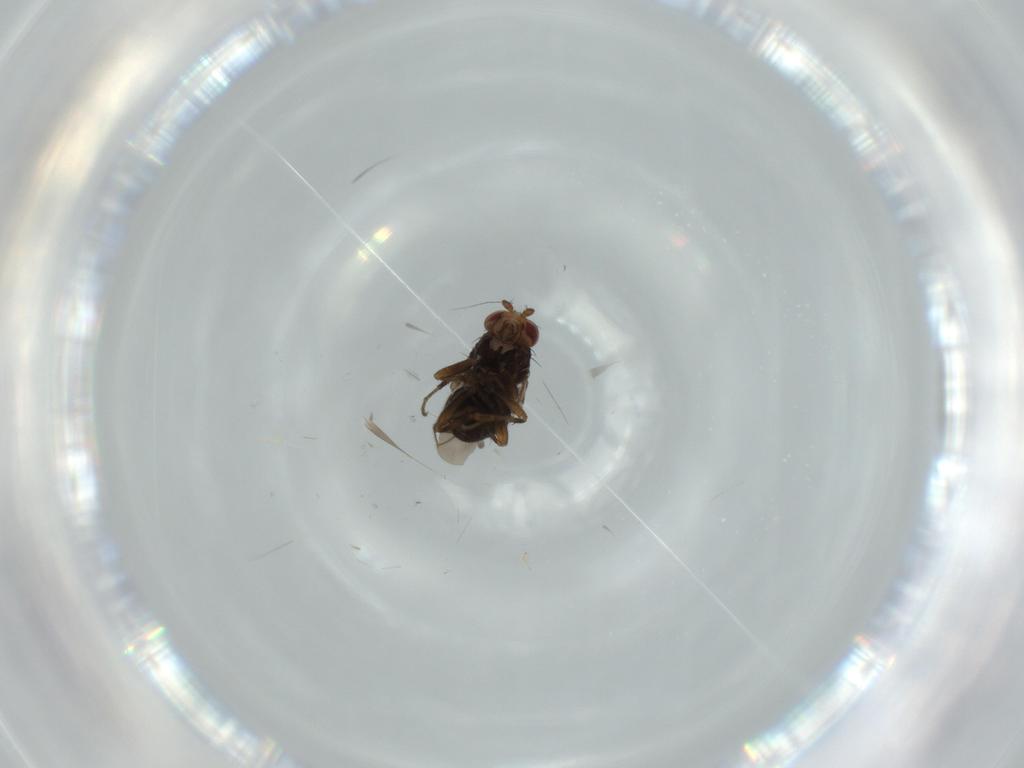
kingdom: Animalia
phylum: Arthropoda
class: Insecta
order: Diptera
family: Sphaeroceridae
